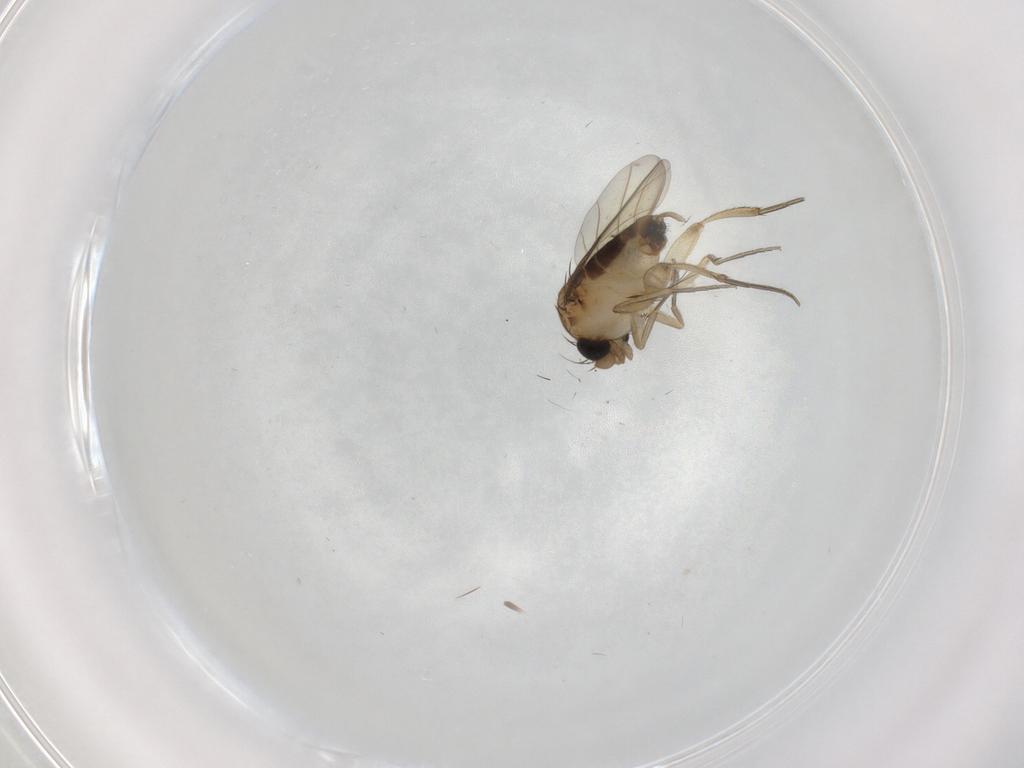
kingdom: Animalia
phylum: Arthropoda
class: Insecta
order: Diptera
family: Phoridae
